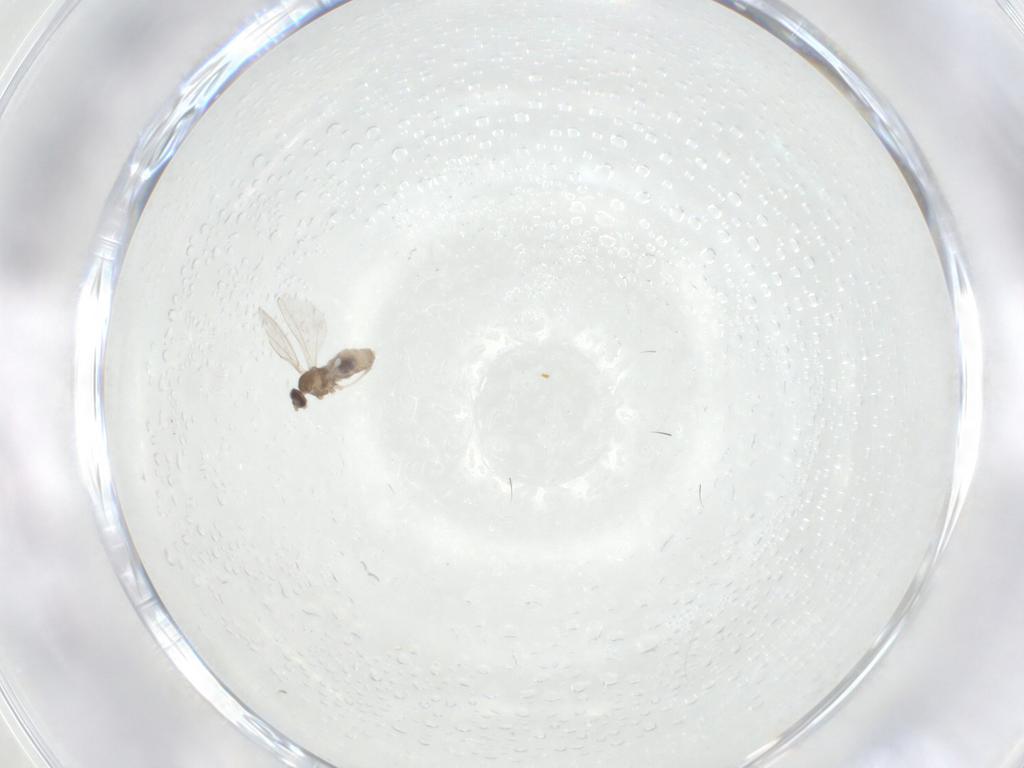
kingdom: Animalia
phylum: Arthropoda
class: Insecta
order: Diptera
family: Cecidomyiidae
